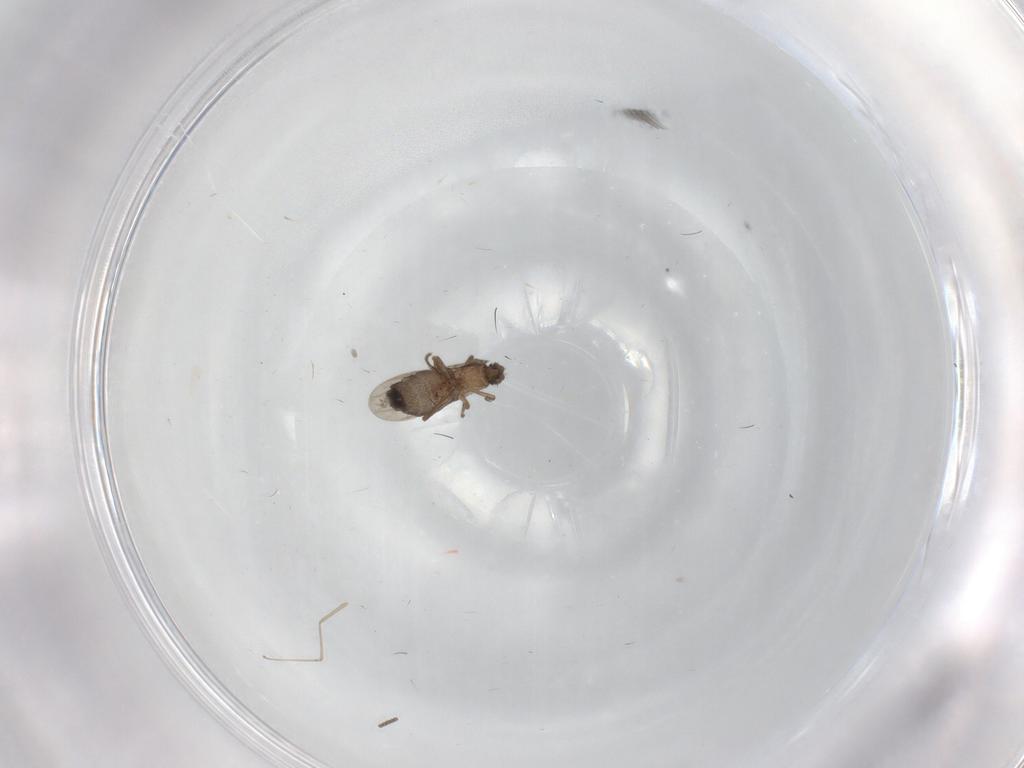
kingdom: Animalia
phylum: Arthropoda
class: Insecta
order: Diptera
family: Cecidomyiidae
